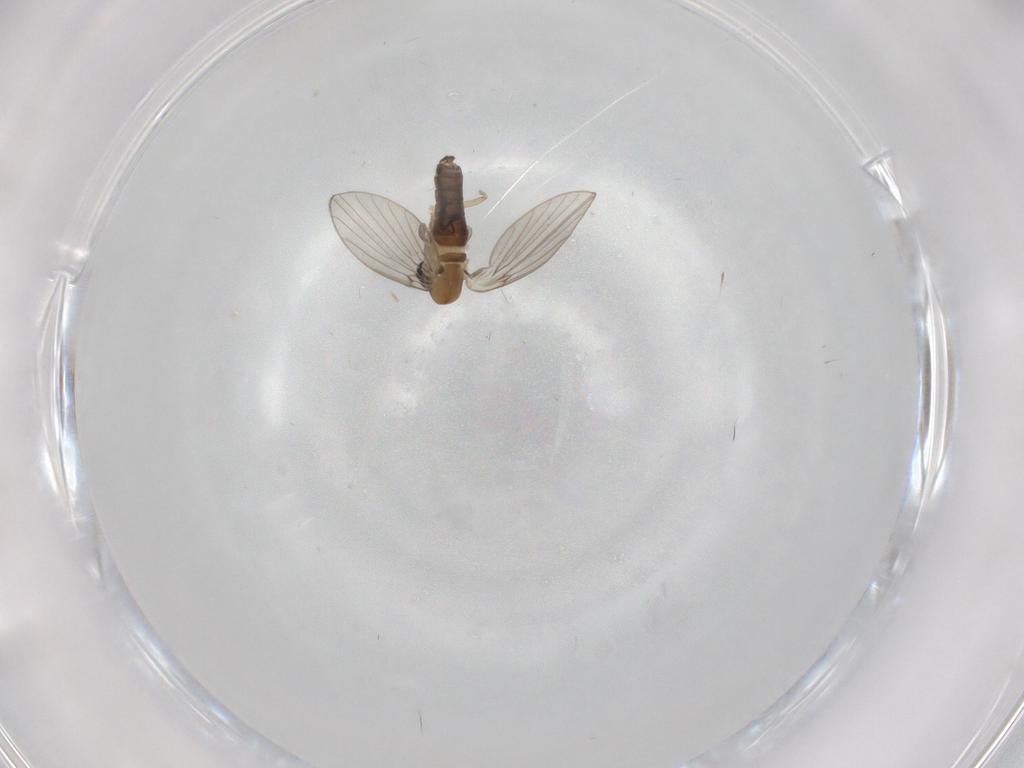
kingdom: Animalia
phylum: Arthropoda
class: Insecta
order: Diptera
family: Psychodidae
